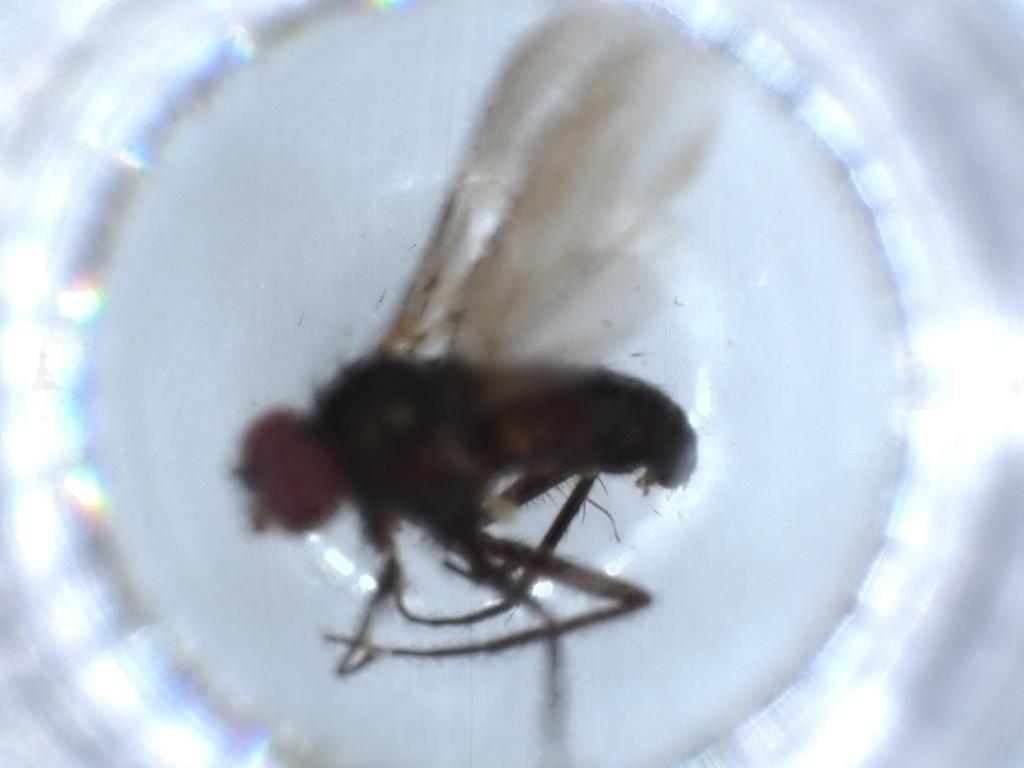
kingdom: Animalia
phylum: Arthropoda
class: Insecta
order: Diptera
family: Dolichopodidae
